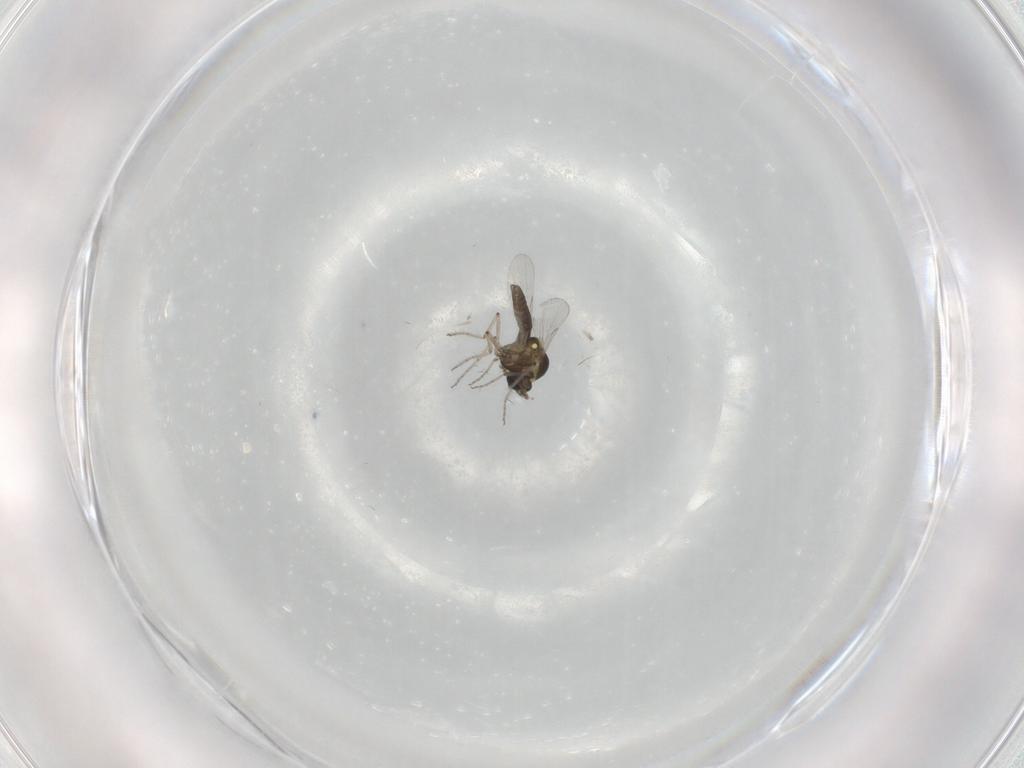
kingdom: Animalia
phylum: Arthropoda
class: Insecta
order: Diptera
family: Ceratopogonidae
